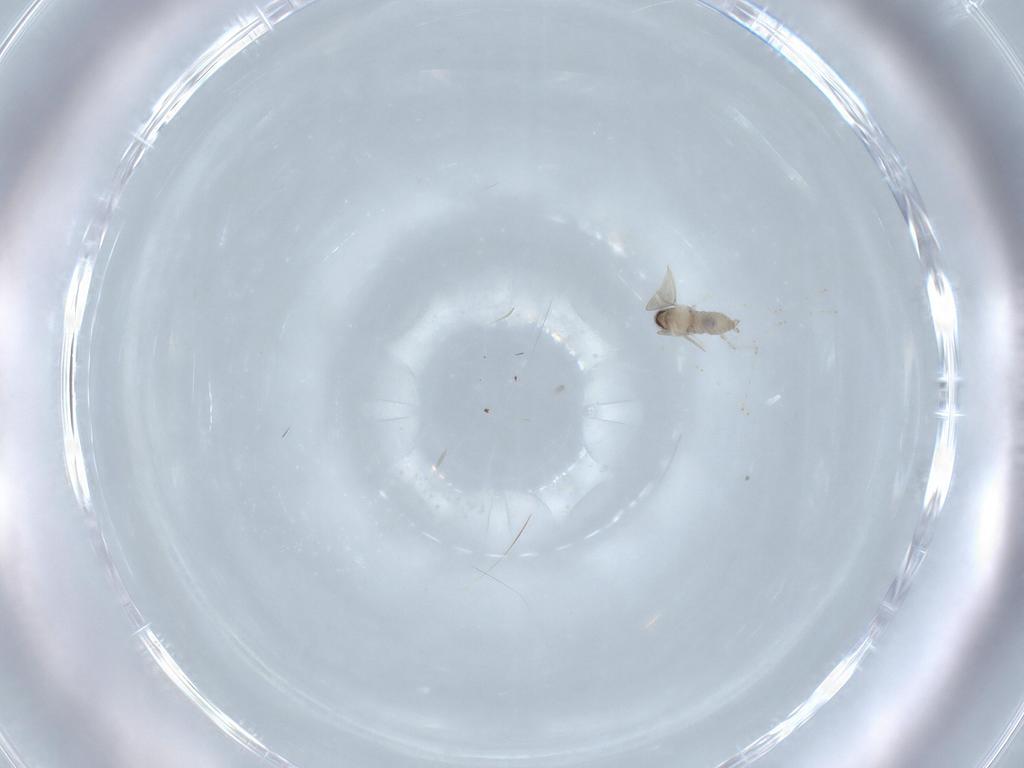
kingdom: Animalia
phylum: Arthropoda
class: Insecta
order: Diptera
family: Cecidomyiidae
